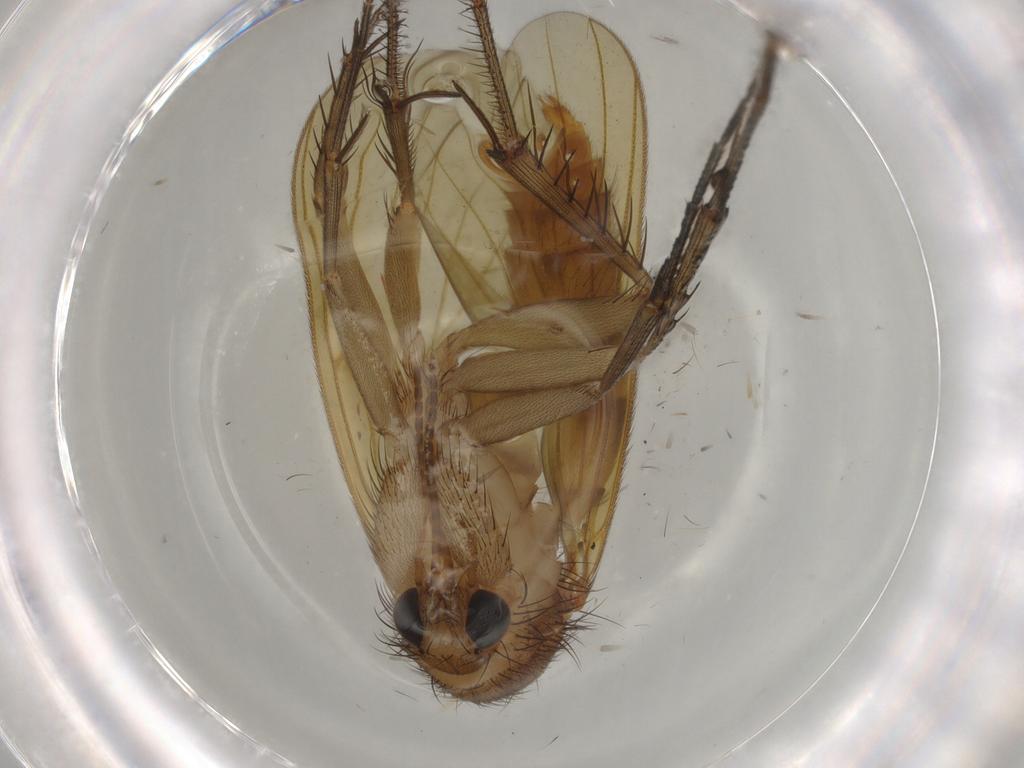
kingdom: Animalia
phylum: Arthropoda
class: Insecta
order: Diptera
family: Mycetophilidae
